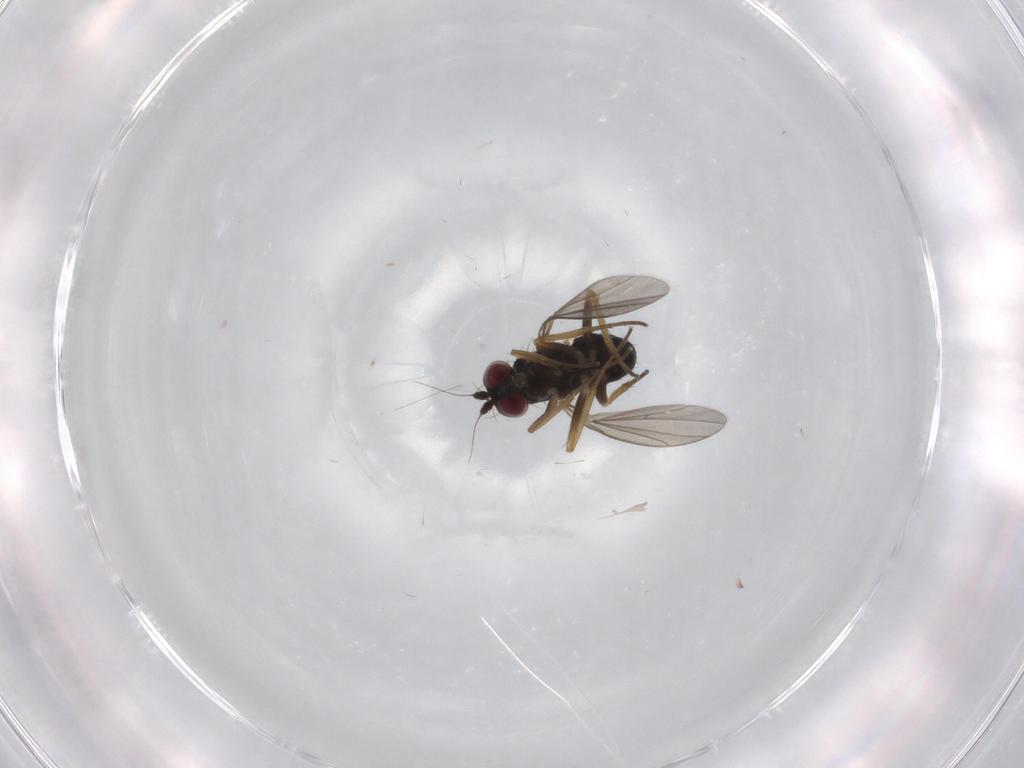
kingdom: Animalia
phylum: Arthropoda
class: Insecta
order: Diptera
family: Dolichopodidae
